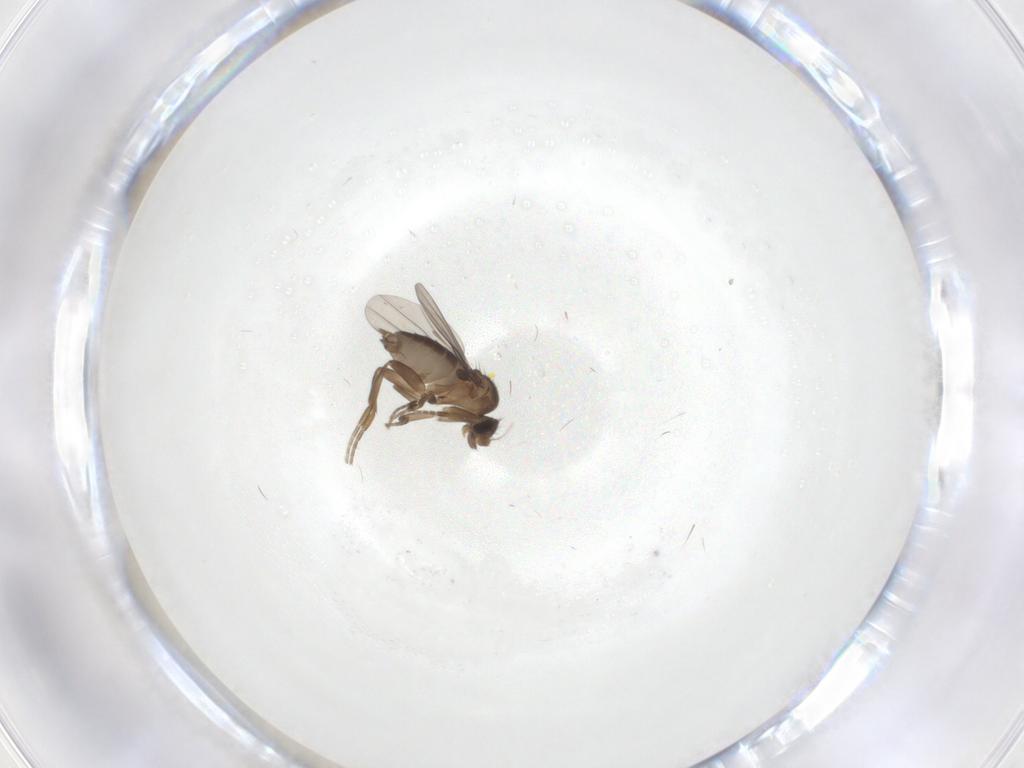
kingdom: Animalia
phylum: Arthropoda
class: Insecta
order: Diptera
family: Phoridae
